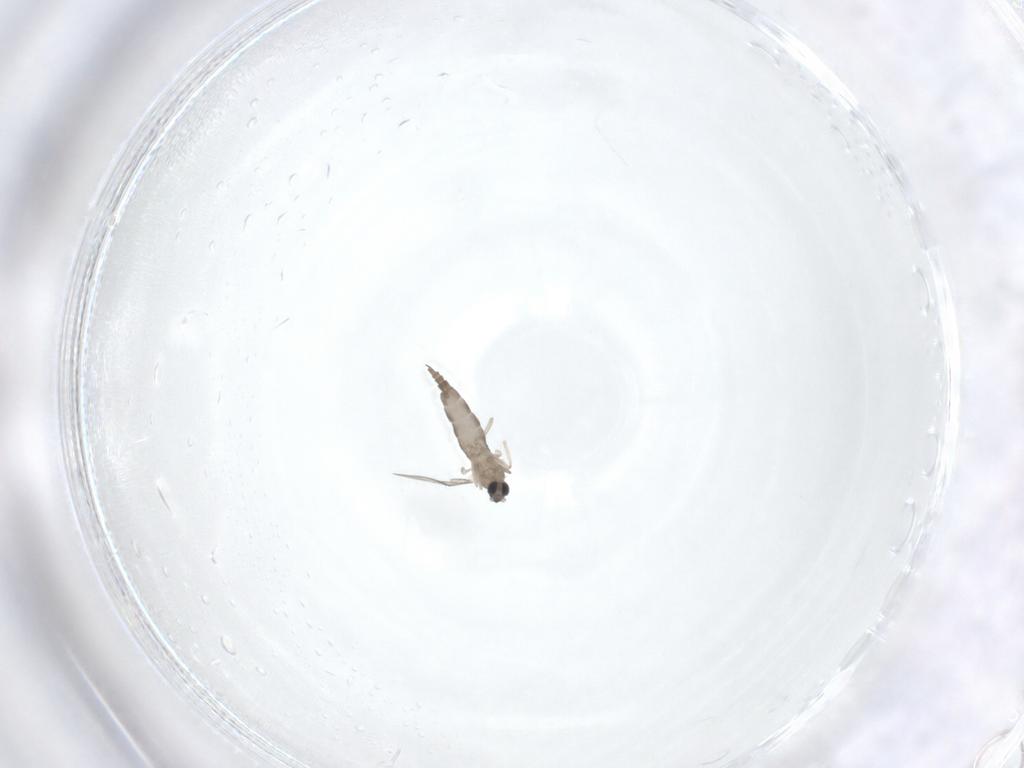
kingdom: Animalia
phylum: Arthropoda
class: Insecta
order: Diptera
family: Cecidomyiidae
